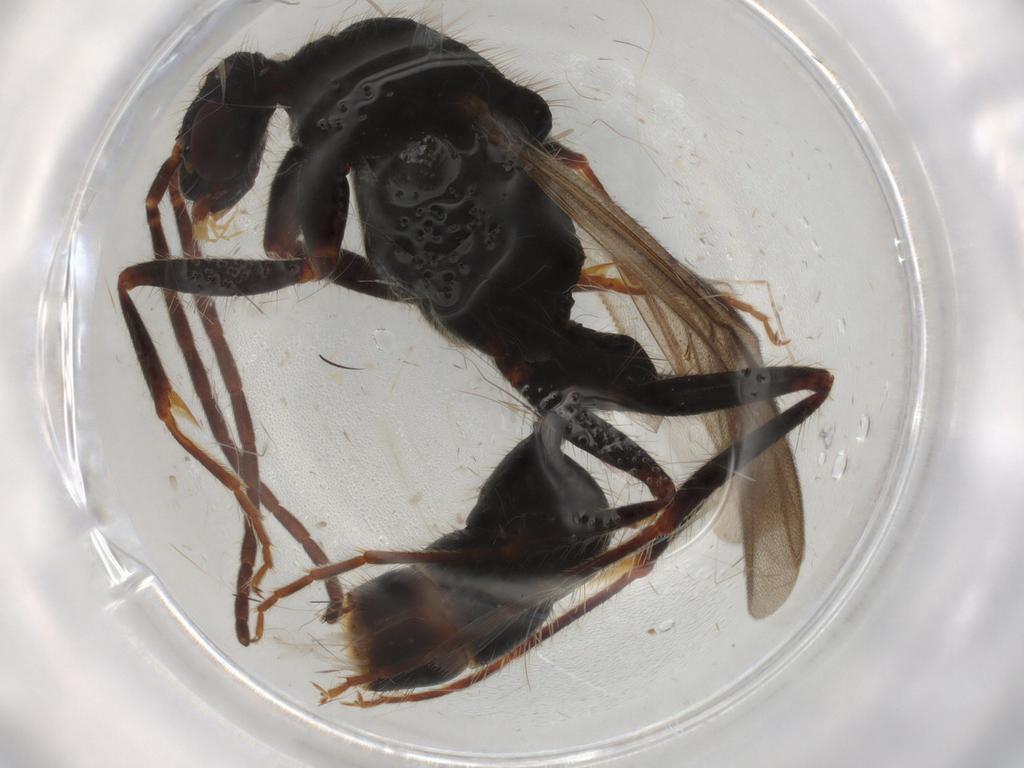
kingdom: Animalia
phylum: Arthropoda
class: Insecta
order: Hymenoptera
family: Formicidae
